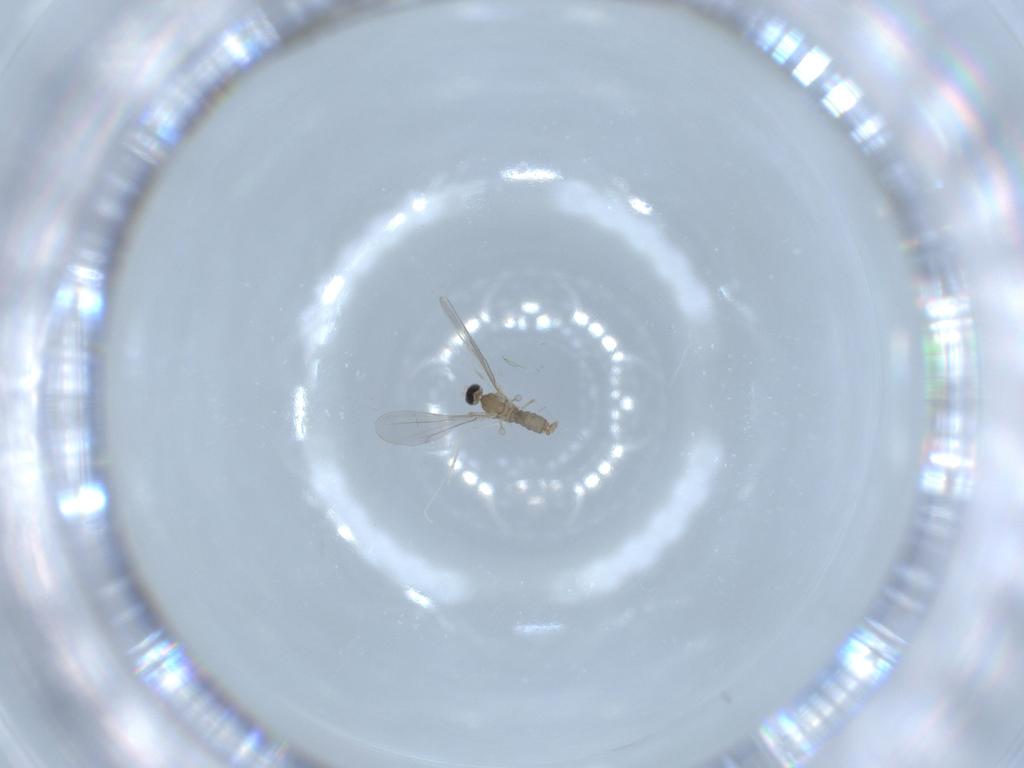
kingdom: Animalia
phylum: Arthropoda
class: Insecta
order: Diptera
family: Cecidomyiidae
